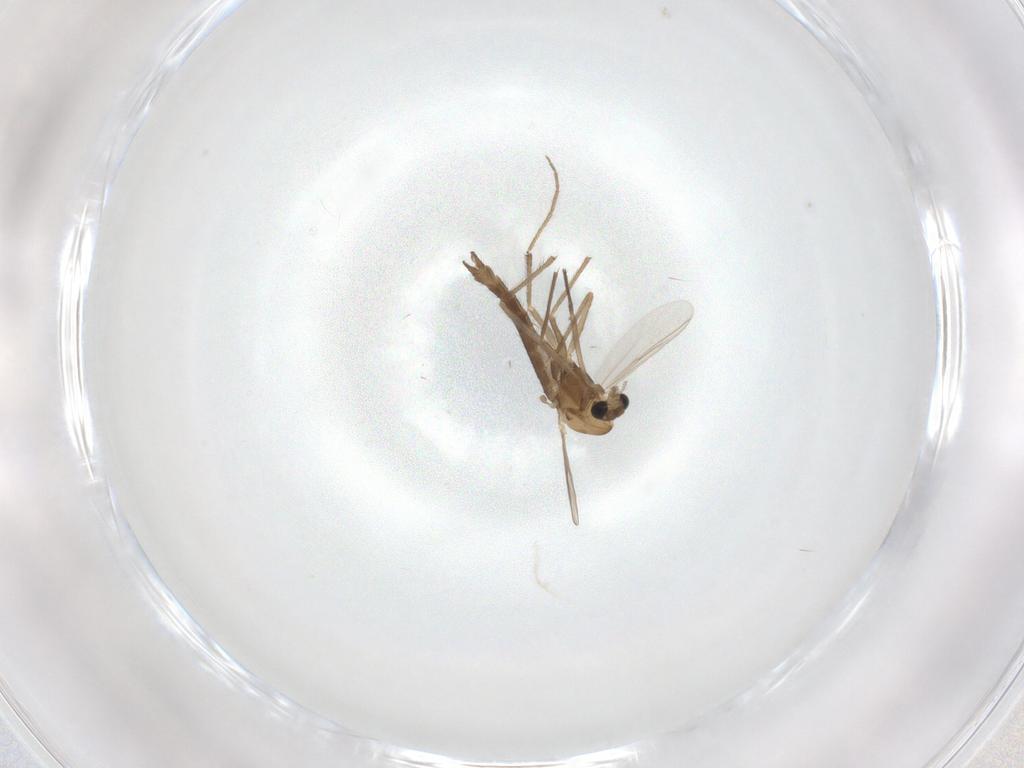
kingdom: Animalia
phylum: Arthropoda
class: Insecta
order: Diptera
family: Chironomidae
